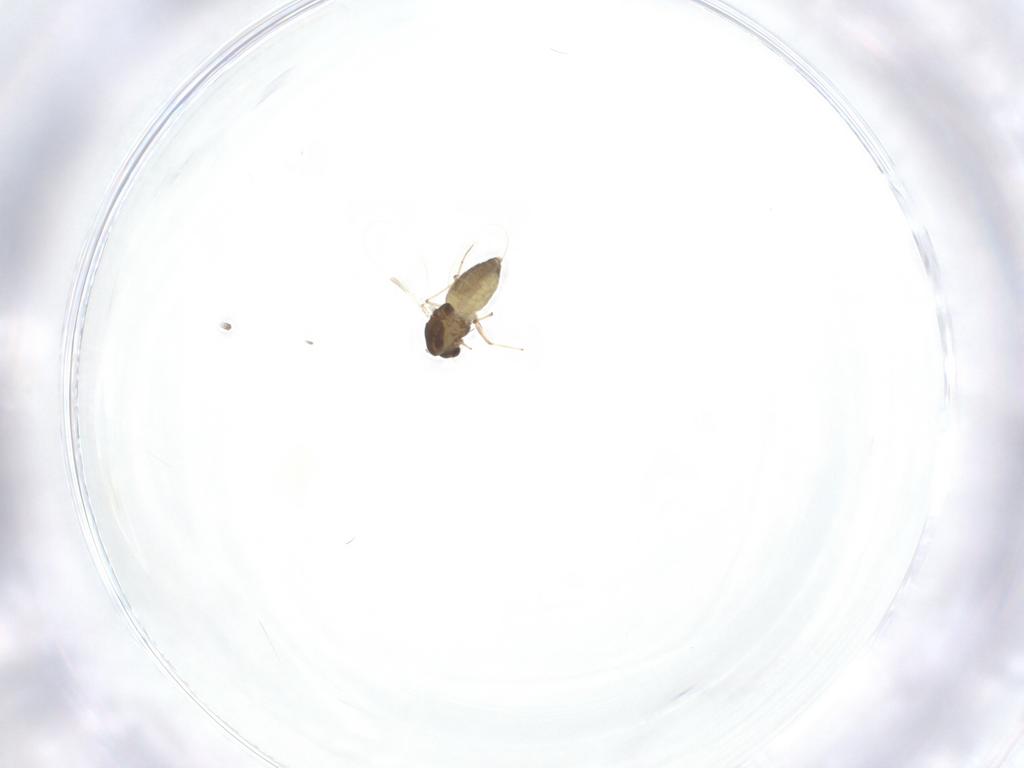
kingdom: Animalia
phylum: Arthropoda
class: Insecta
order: Diptera
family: Chironomidae
